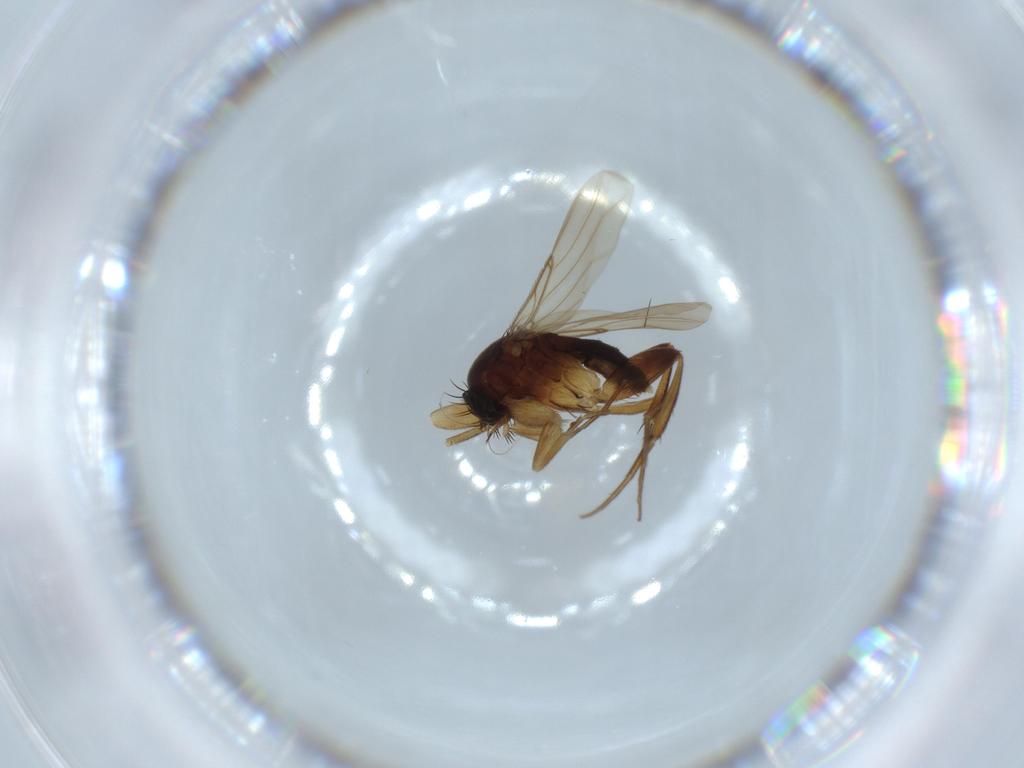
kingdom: Animalia
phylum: Arthropoda
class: Insecta
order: Diptera
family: Phoridae
